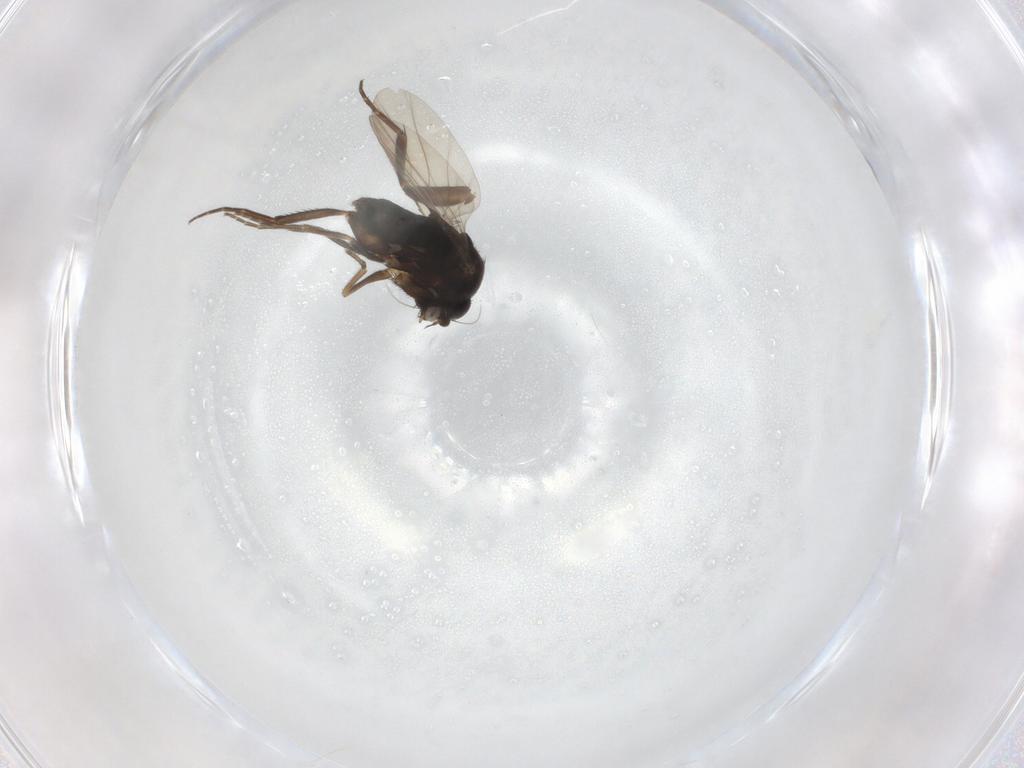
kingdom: Animalia
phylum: Arthropoda
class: Insecta
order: Diptera
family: Phoridae
